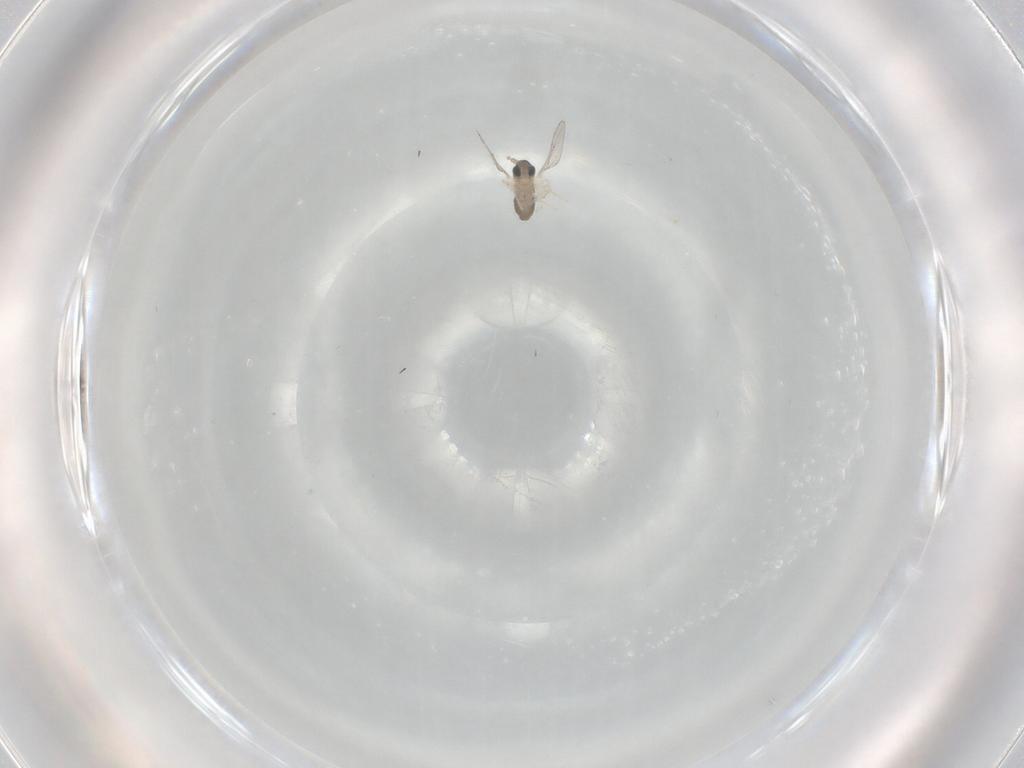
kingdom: Animalia
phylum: Arthropoda
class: Insecta
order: Diptera
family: Cecidomyiidae
